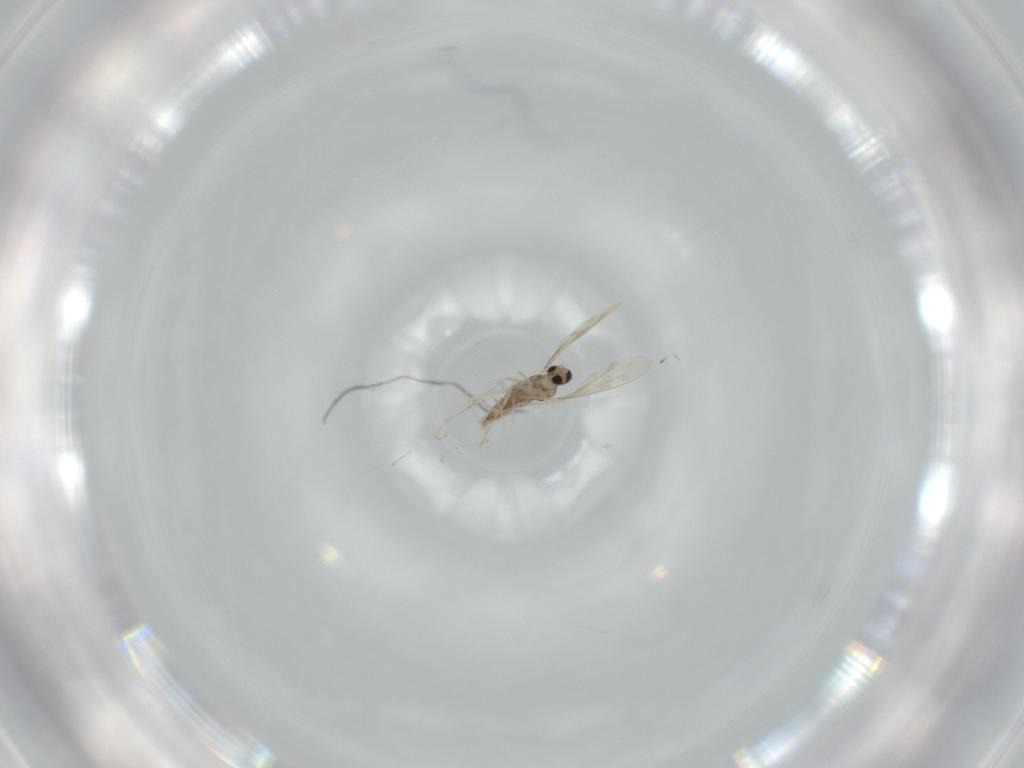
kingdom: Animalia
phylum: Arthropoda
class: Insecta
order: Diptera
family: Cecidomyiidae
